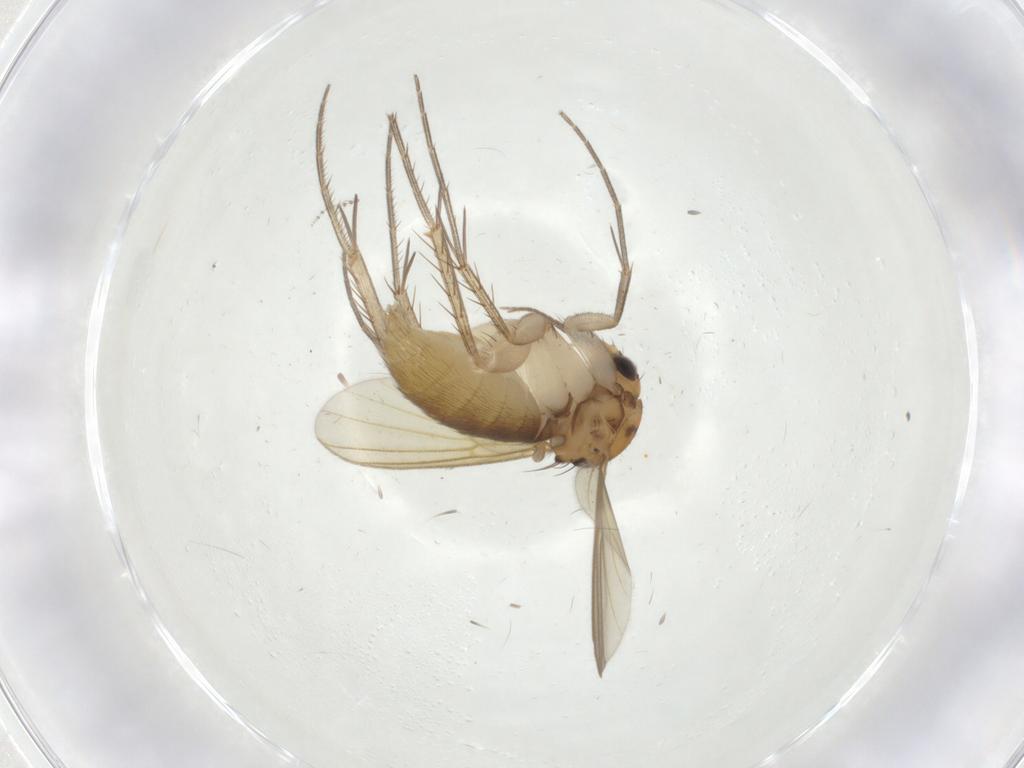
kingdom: Animalia
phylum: Arthropoda
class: Insecta
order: Diptera
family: Mycetophilidae
